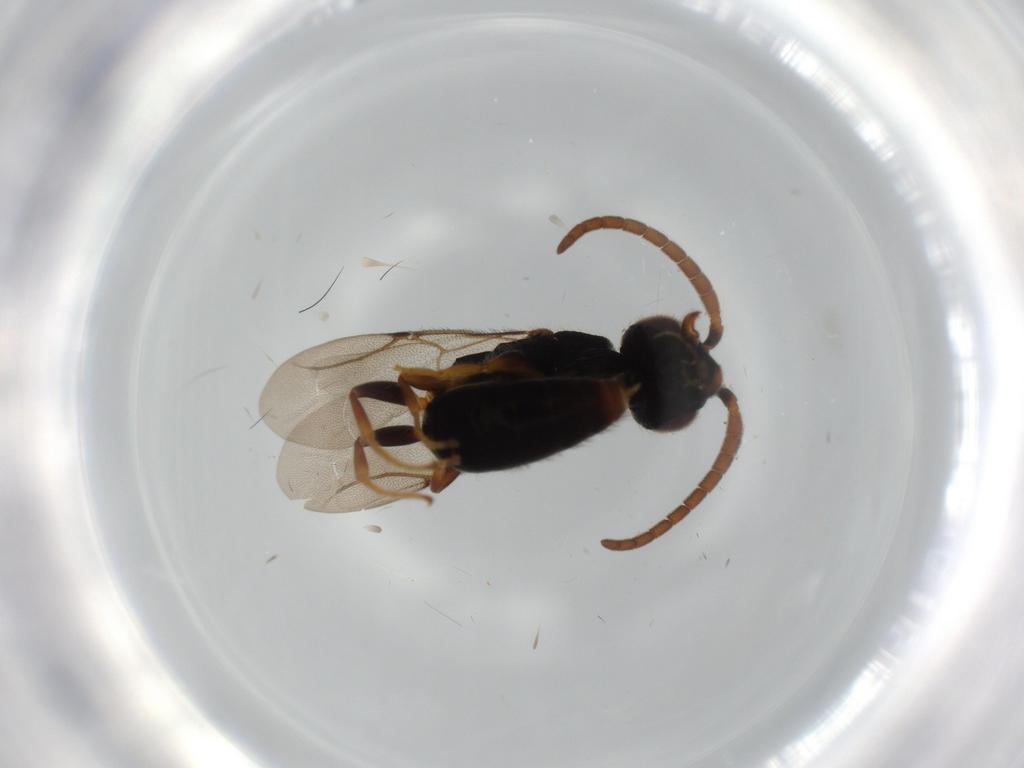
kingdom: Animalia
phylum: Arthropoda
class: Insecta
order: Hymenoptera
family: Bethylidae
